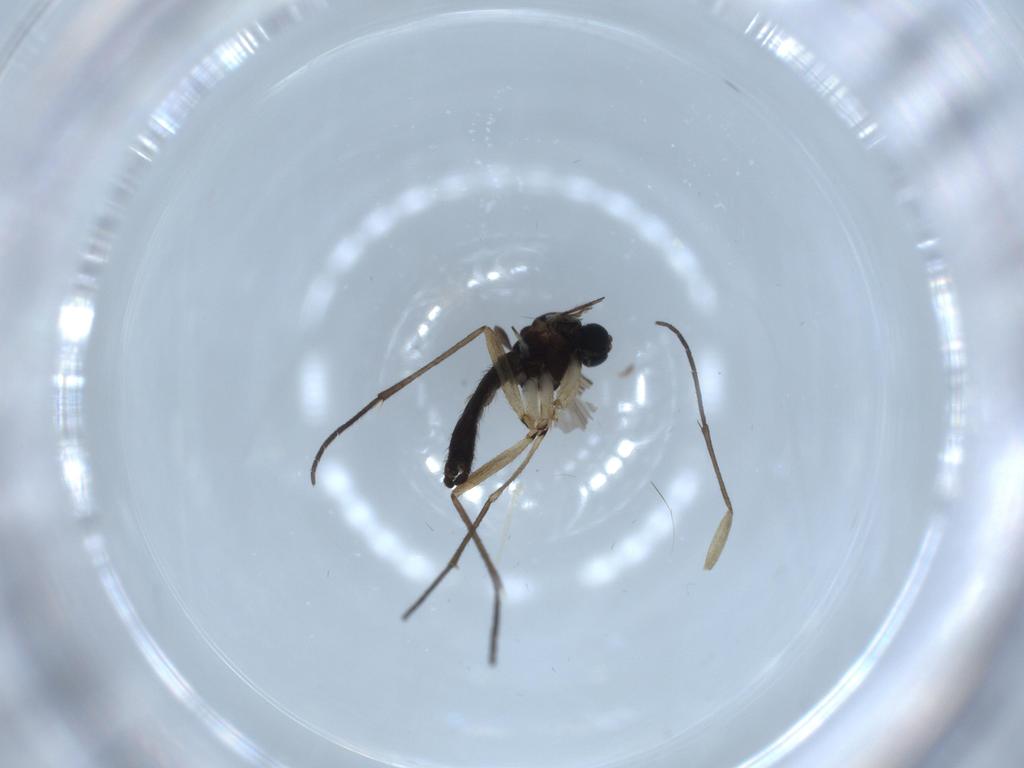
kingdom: Animalia
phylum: Arthropoda
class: Insecta
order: Diptera
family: Sciaridae
